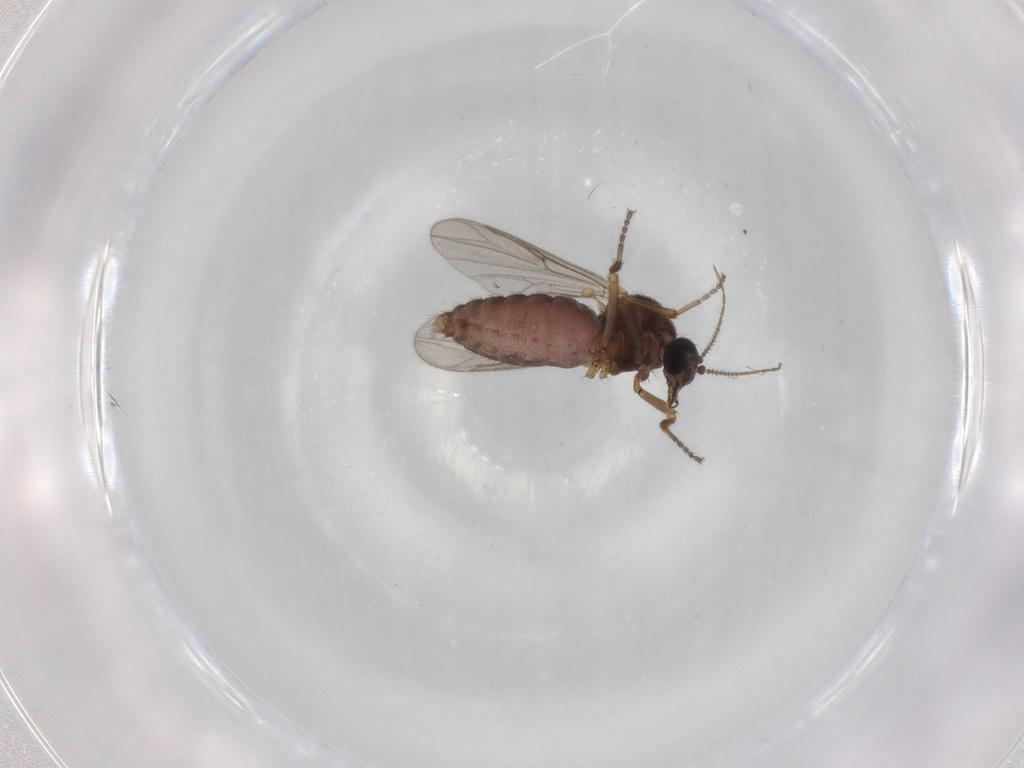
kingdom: Animalia
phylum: Arthropoda
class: Insecta
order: Diptera
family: Ceratopogonidae
